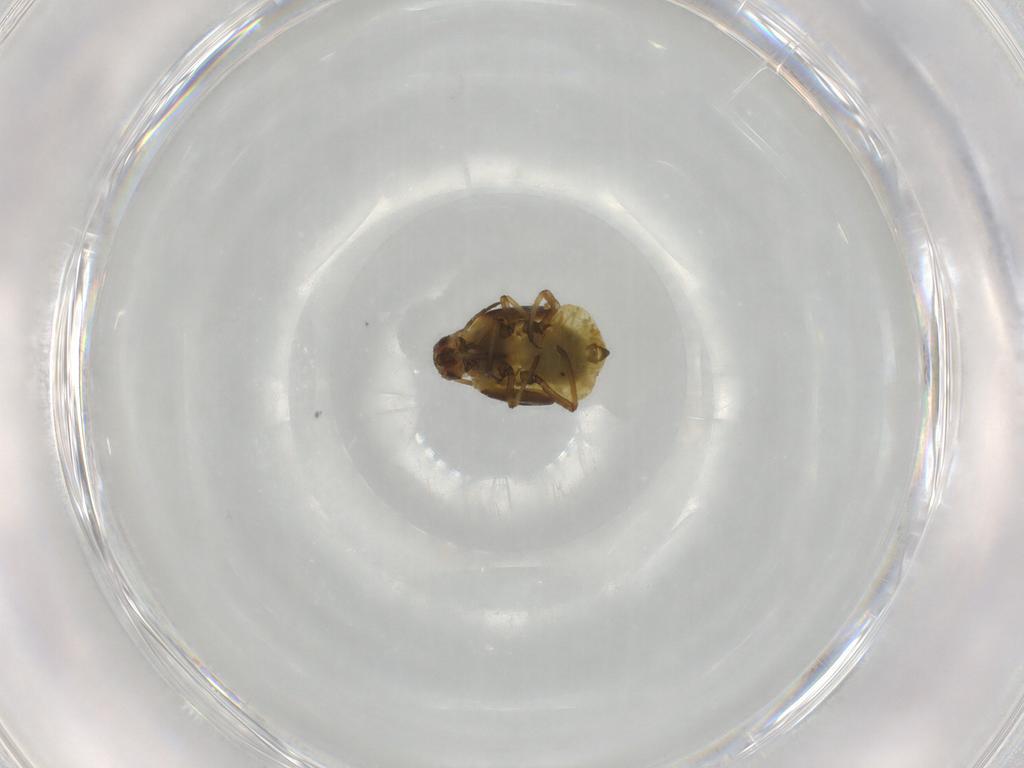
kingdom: Animalia
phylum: Arthropoda
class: Insecta
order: Hemiptera
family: Aphididae
